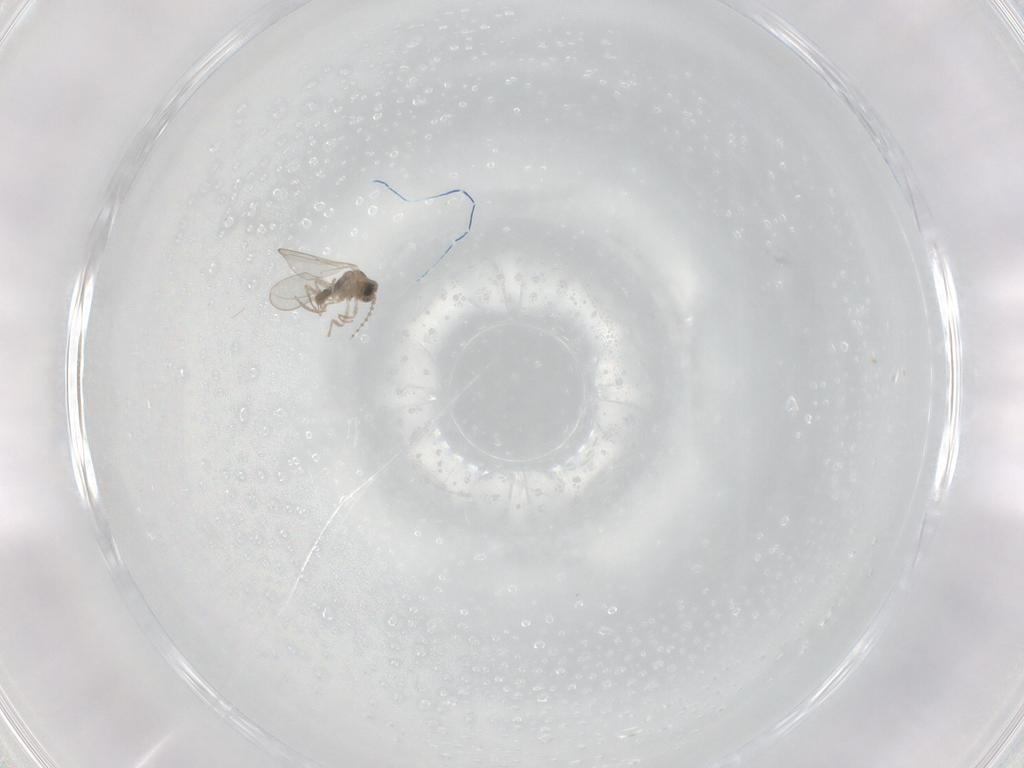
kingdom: Animalia
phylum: Arthropoda
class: Insecta
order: Diptera
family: Cecidomyiidae
